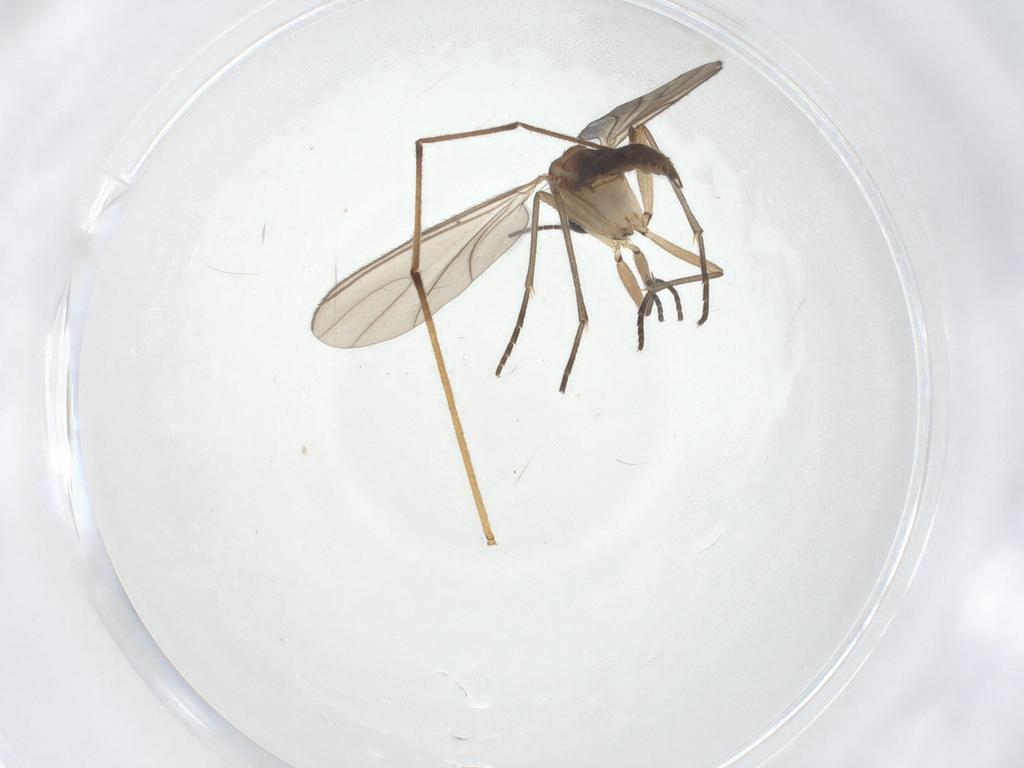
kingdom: Animalia
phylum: Arthropoda
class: Insecta
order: Diptera
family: Sciaridae
